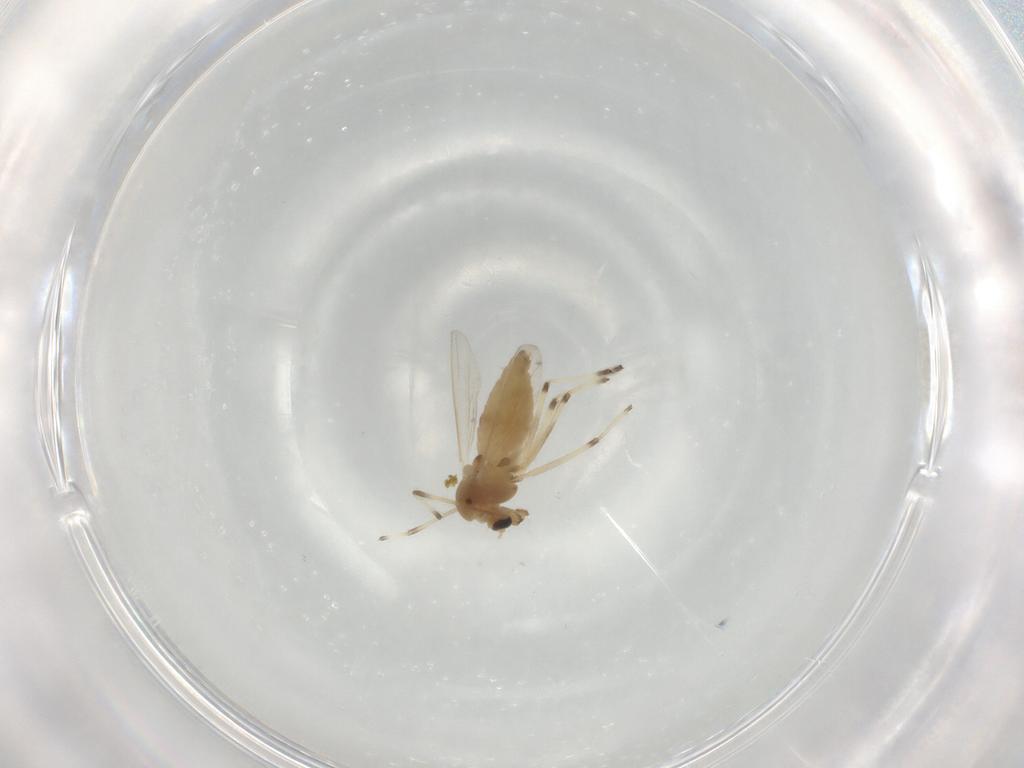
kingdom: Animalia
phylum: Arthropoda
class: Insecta
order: Diptera
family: Chironomidae
